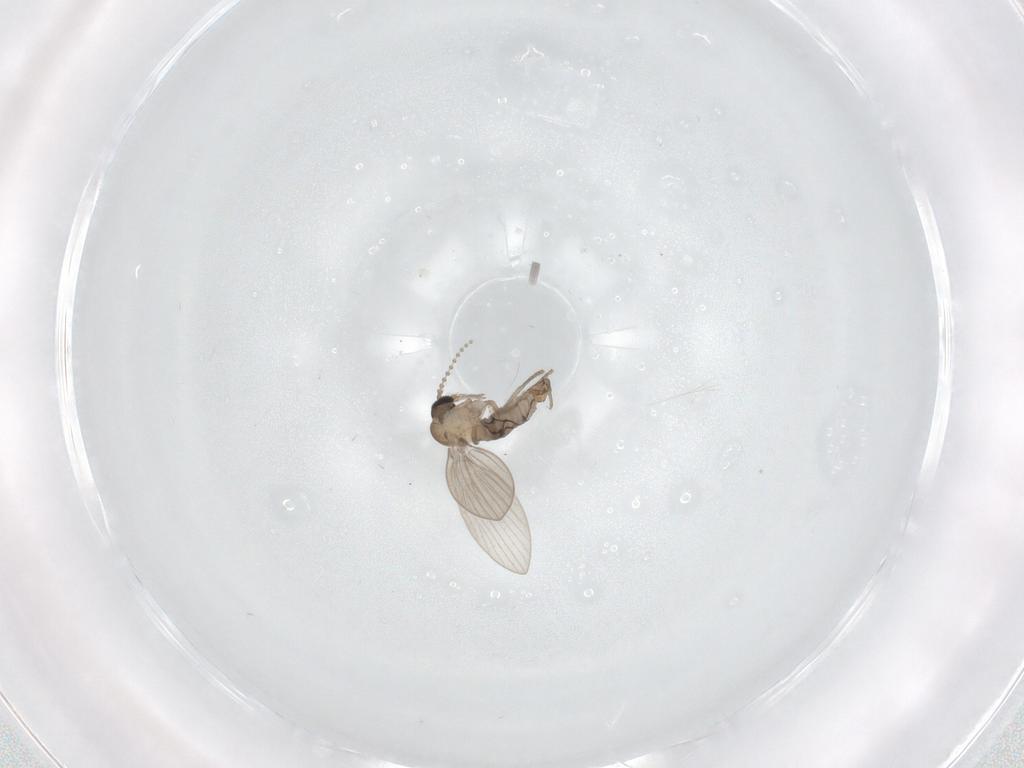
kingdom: Animalia
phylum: Arthropoda
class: Insecta
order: Diptera
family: Psychodidae
